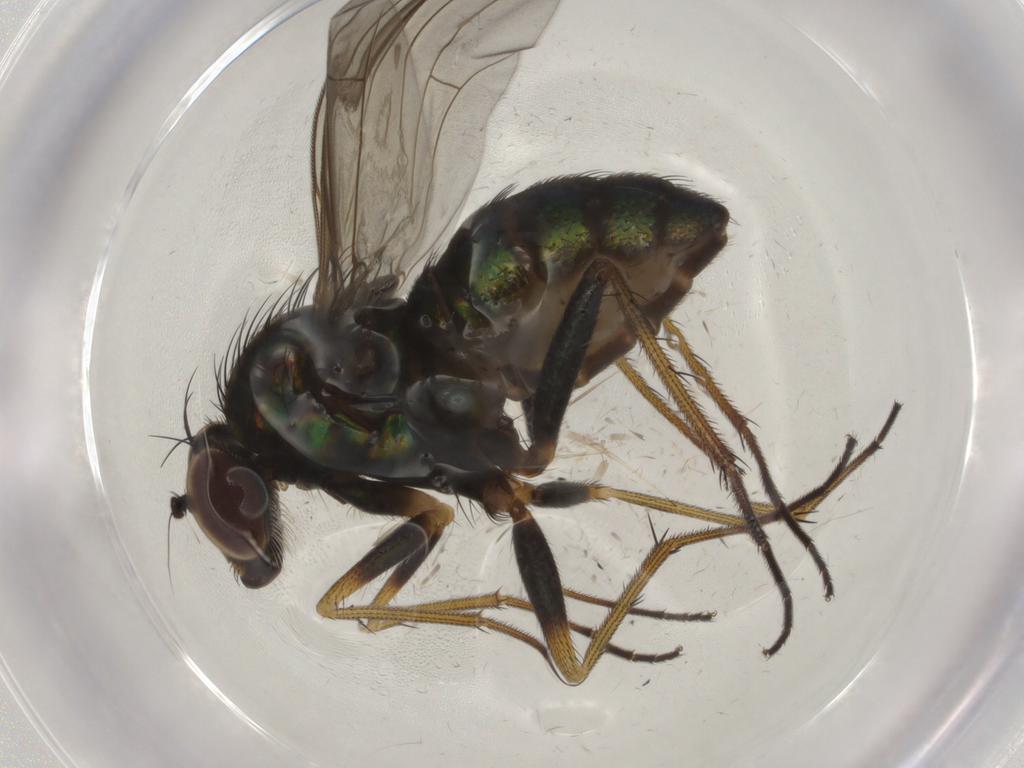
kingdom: Animalia
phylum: Arthropoda
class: Insecta
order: Diptera
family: Dolichopodidae
